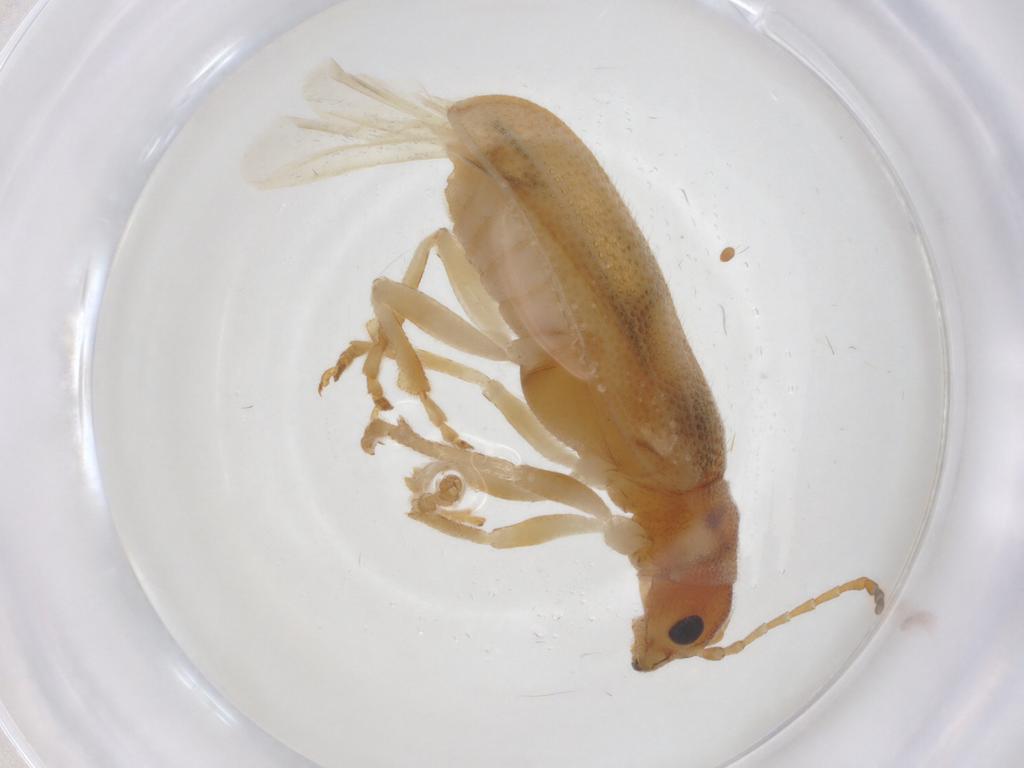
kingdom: Animalia
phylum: Arthropoda
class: Insecta
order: Coleoptera
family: Chrysomelidae
